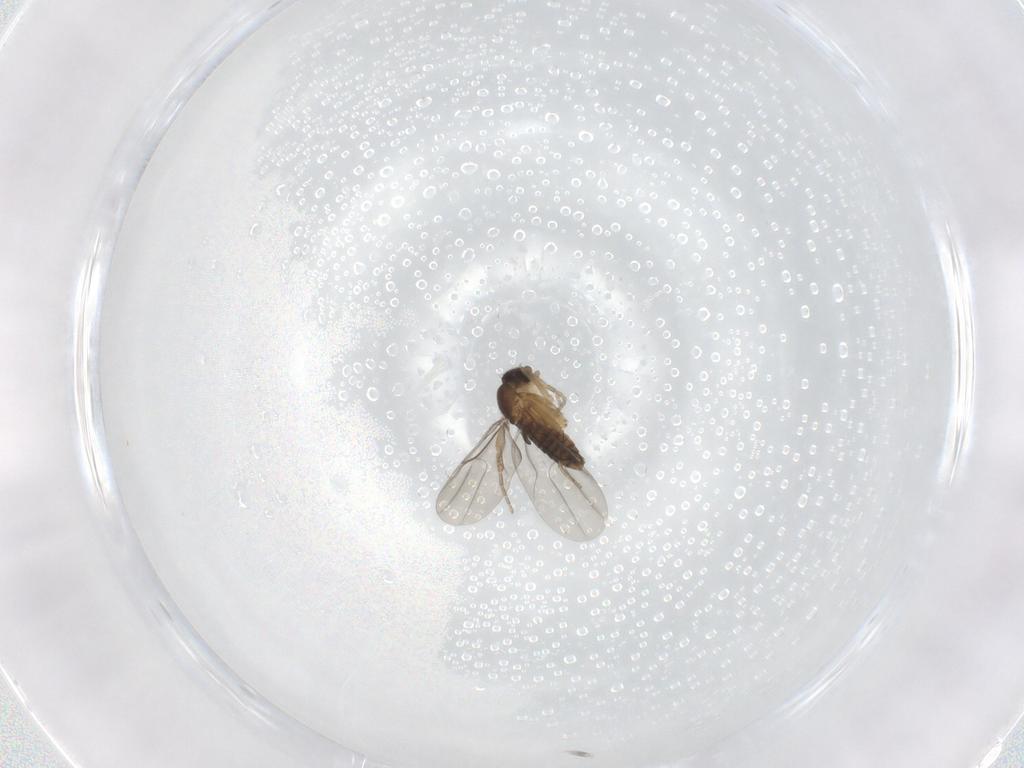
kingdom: Animalia
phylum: Arthropoda
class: Insecta
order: Diptera
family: Phoridae
